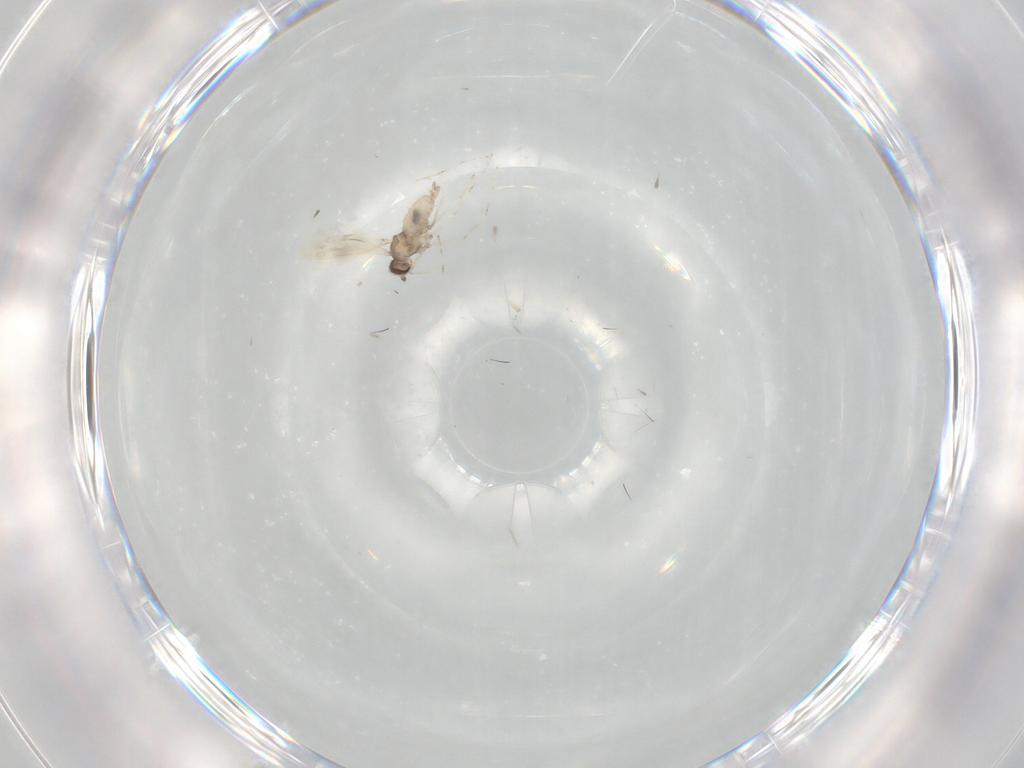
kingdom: Animalia
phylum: Arthropoda
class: Insecta
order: Diptera
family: Cecidomyiidae
